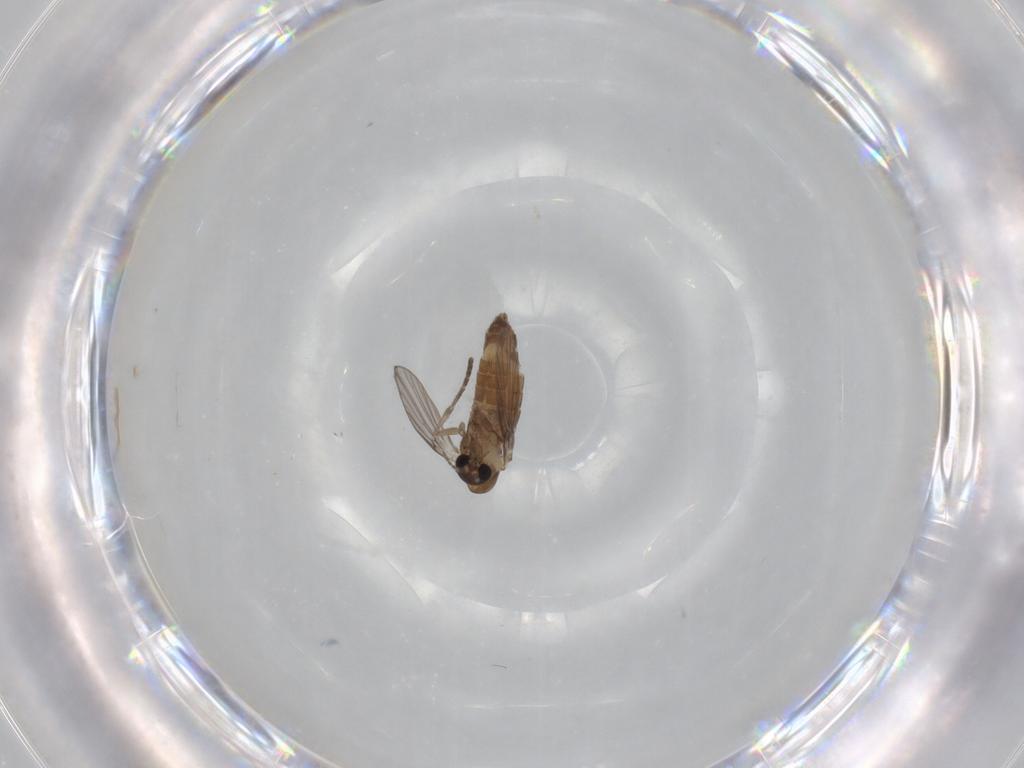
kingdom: Animalia
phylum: Arthropoda
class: Insecta
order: Diptera
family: Psychodidae
